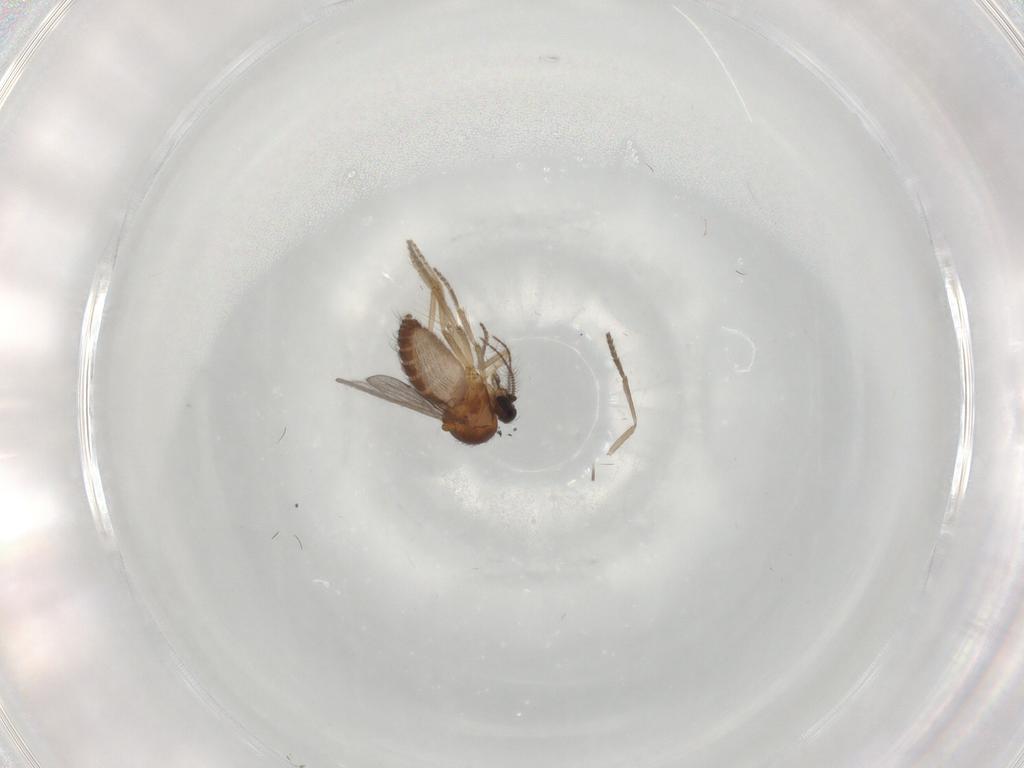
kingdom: Animalia
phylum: Arthropoda
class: Insecta
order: Diptera
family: Ceratopogonidae
